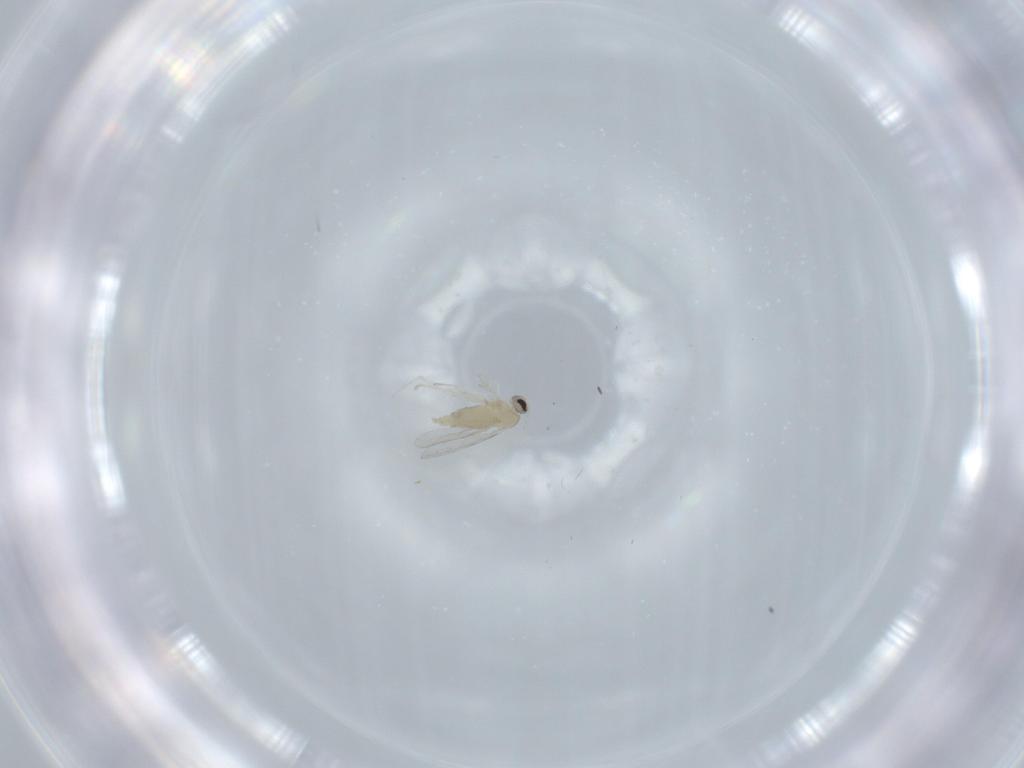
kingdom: Animalia
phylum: Arthropoda
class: Insecta
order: Diptera
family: Cecidomyiidae
